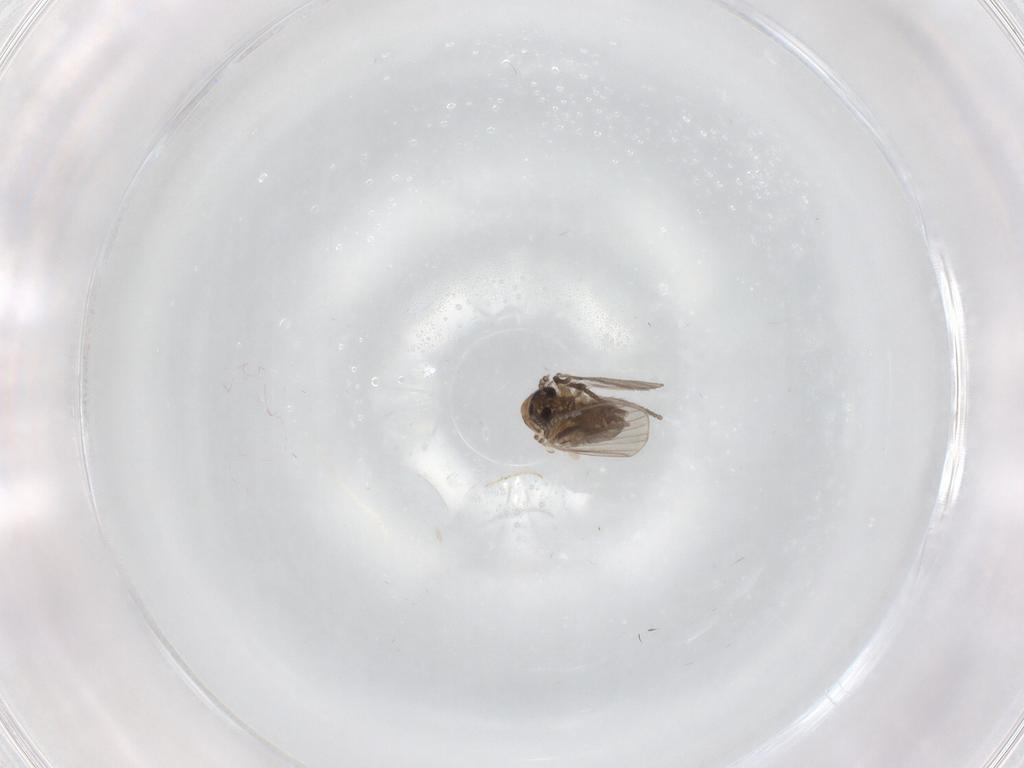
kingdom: Animalia
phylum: Arthropoda
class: Insecta
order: Diptera
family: Psychodidae
